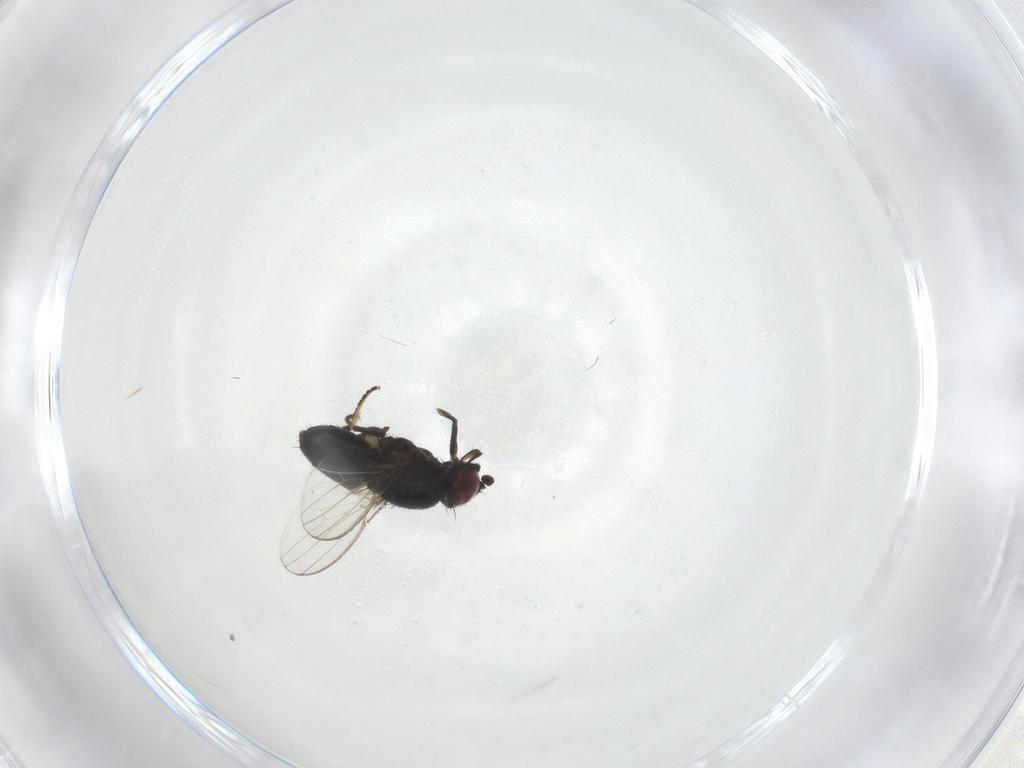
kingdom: Animalia
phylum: Arthropoda
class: Insecta
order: Diptera
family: Milichiidae
